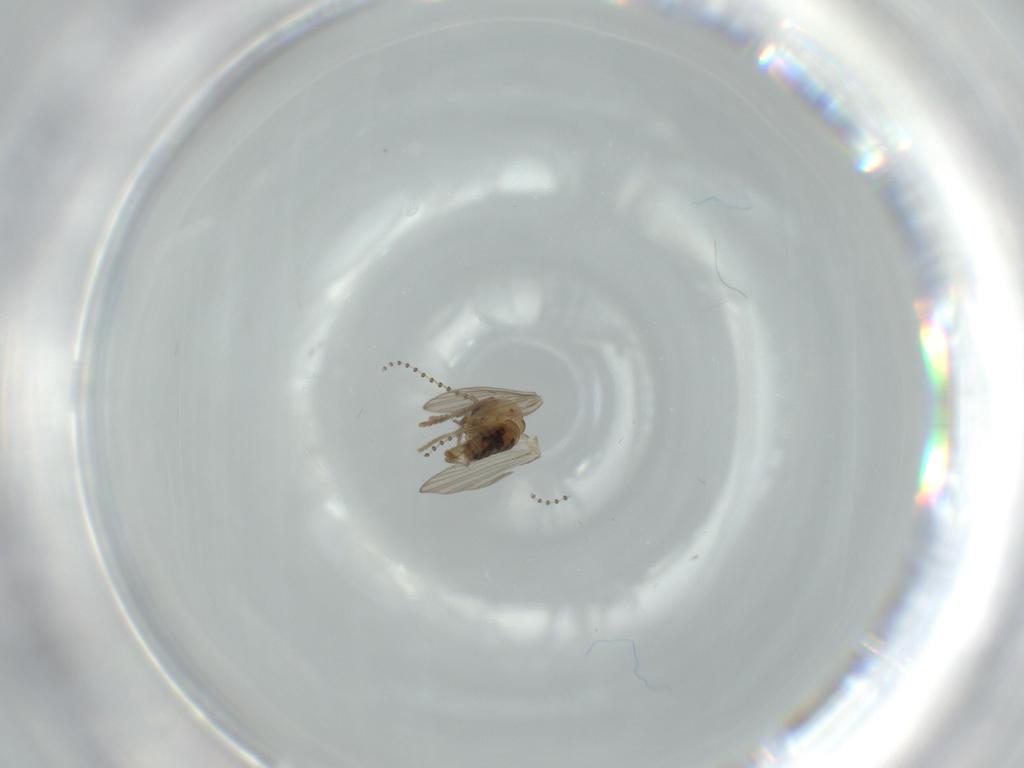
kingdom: Animalia
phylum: Arthropoda
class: Insecta
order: Diptera
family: Psychodidae
